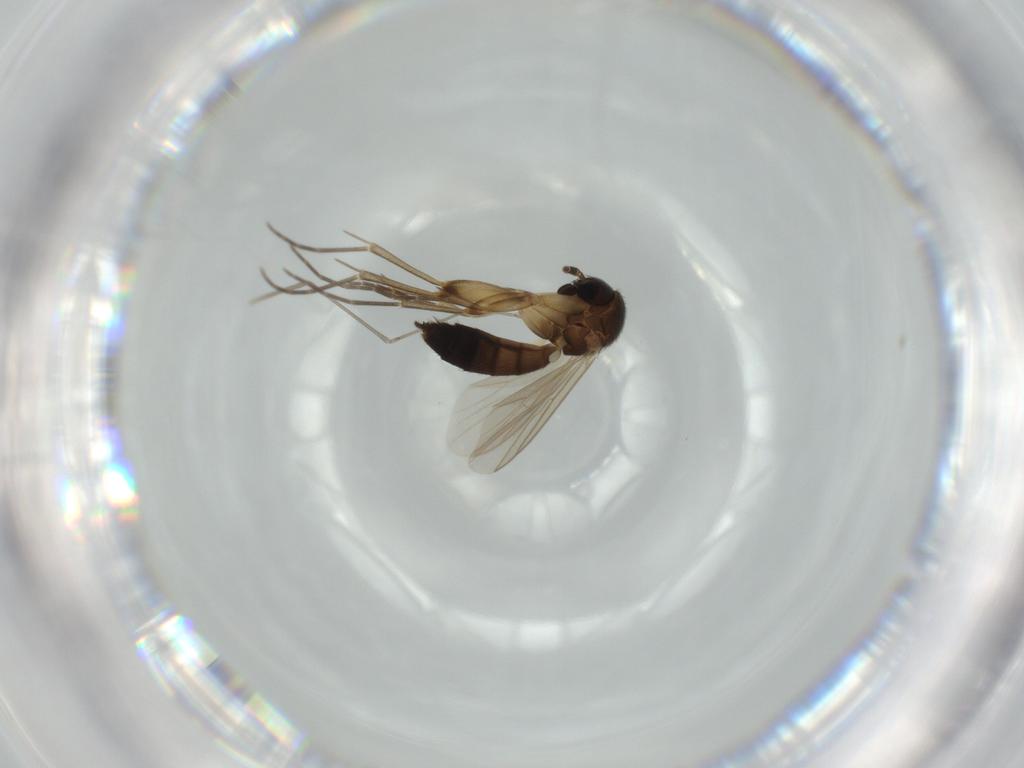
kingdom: Animalia
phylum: Arthropoda
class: Insecta
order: Diptera
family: Mycetophilidae
